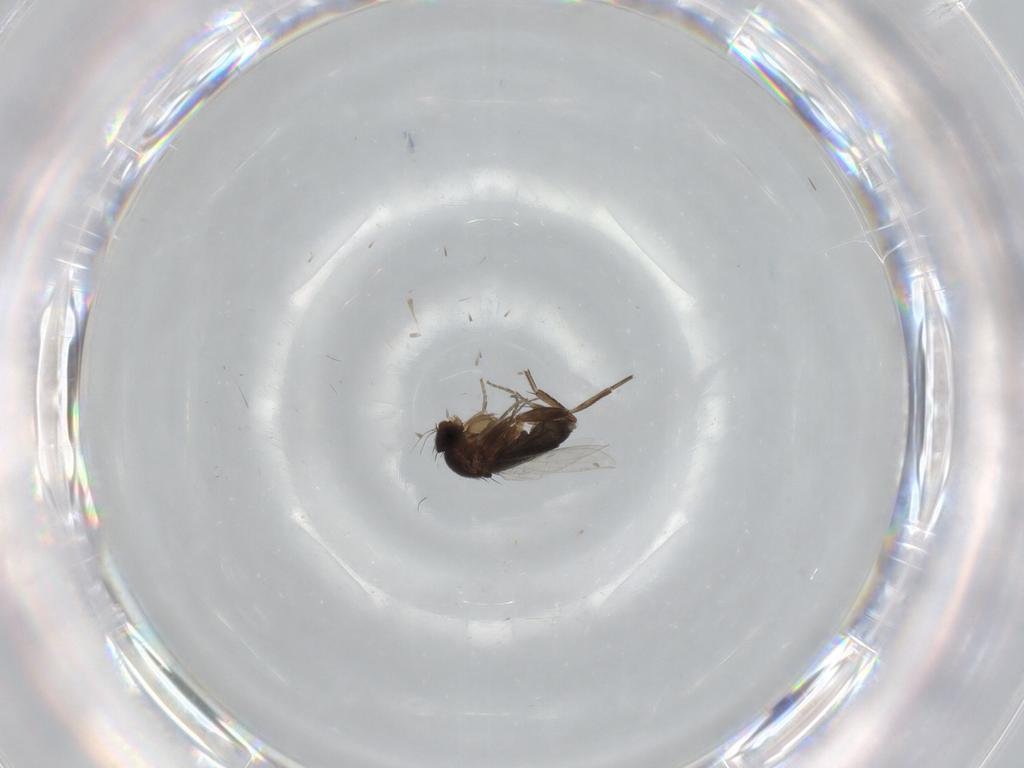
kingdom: Animalia
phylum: Arthropoda
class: Insecta
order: Diptera
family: Phoridae
